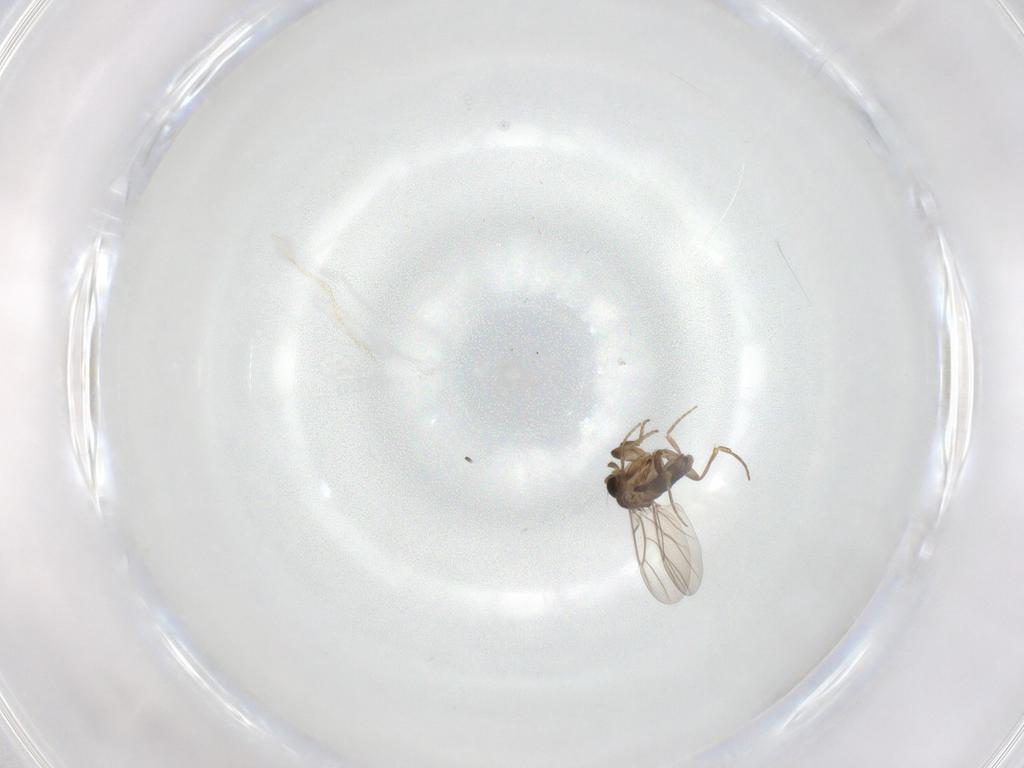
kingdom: Animalia
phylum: Arthropoda
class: Insecta
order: Diptera
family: Phoridae
